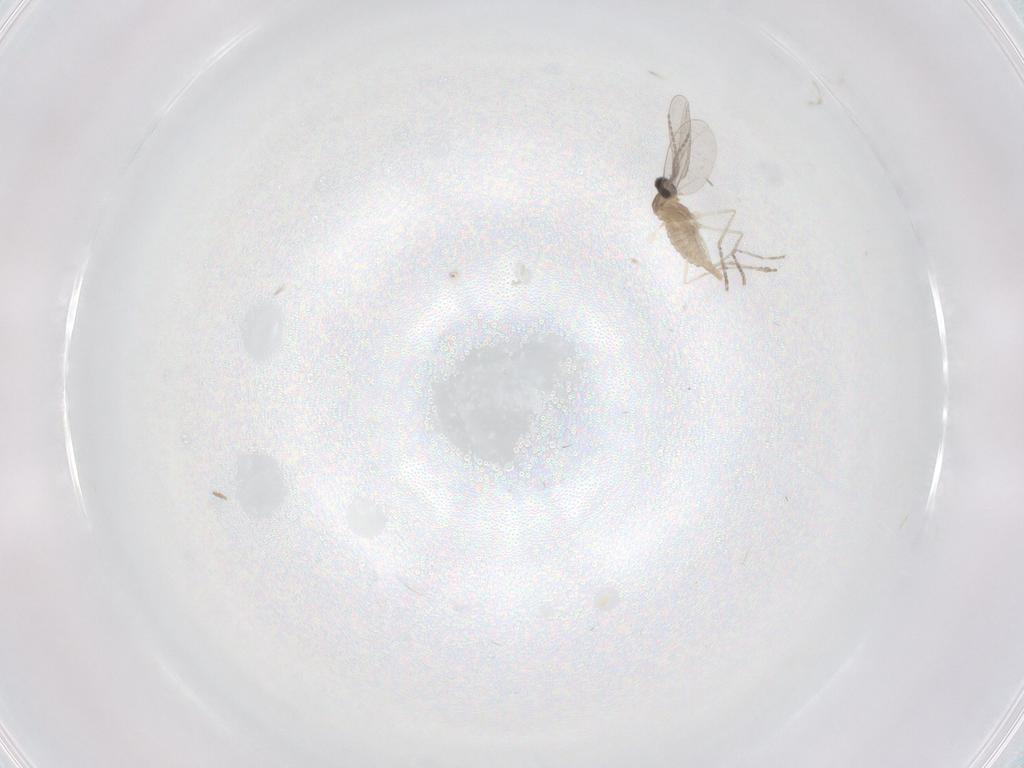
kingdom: Animalia
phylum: Arthropoda
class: Insecta
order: Diptera
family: Cecidomyiidae
